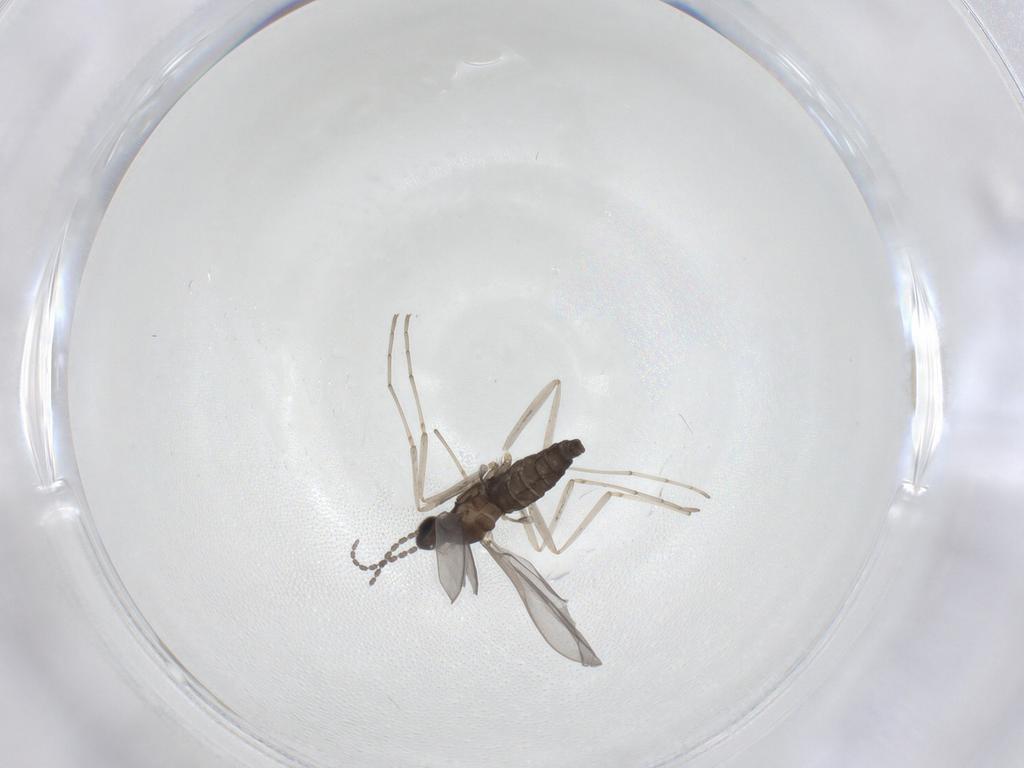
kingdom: Animalia
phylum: Arthropoda
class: Insecta
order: Diptera
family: Cecidomyiidae
